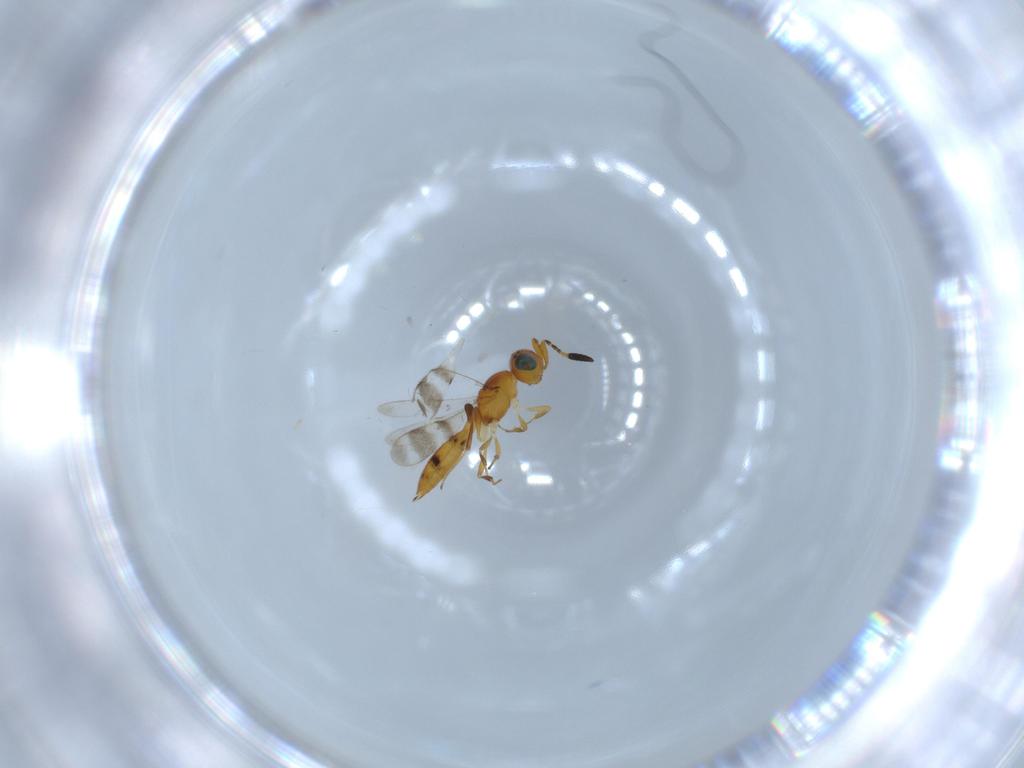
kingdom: Animalia
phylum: Arthropoda
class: Insecta
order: Hymenoptera
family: Scelionidae
